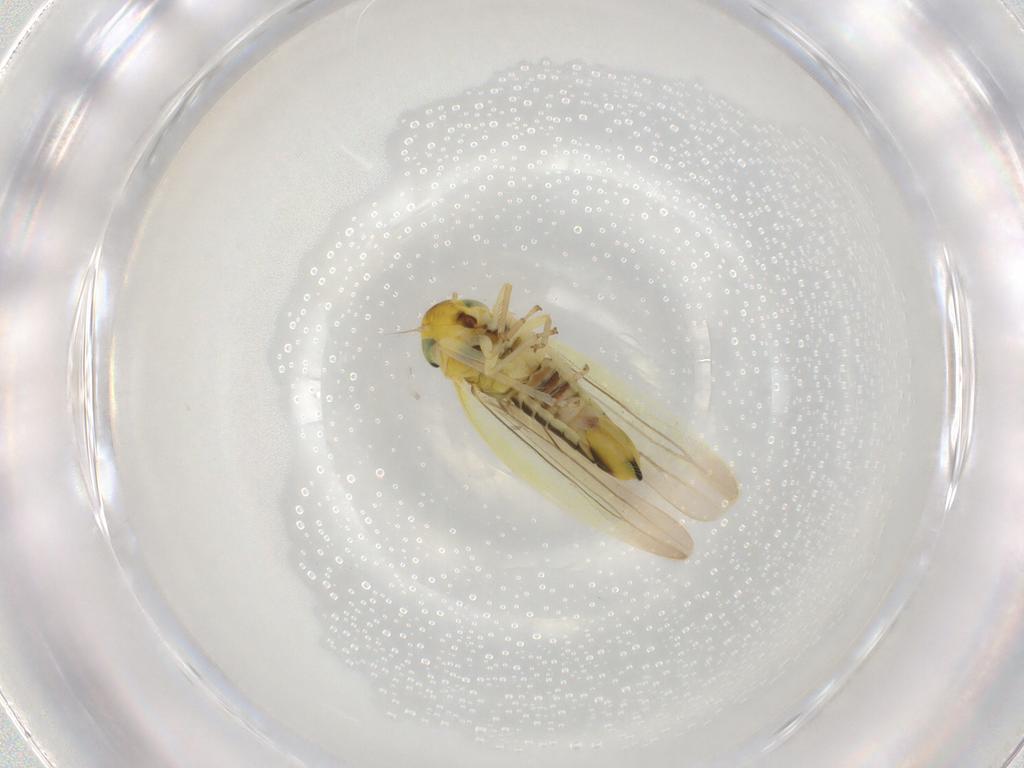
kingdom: Animalia
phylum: Arthropoda
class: Insecta
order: Hemiptera
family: Cicadellidae
